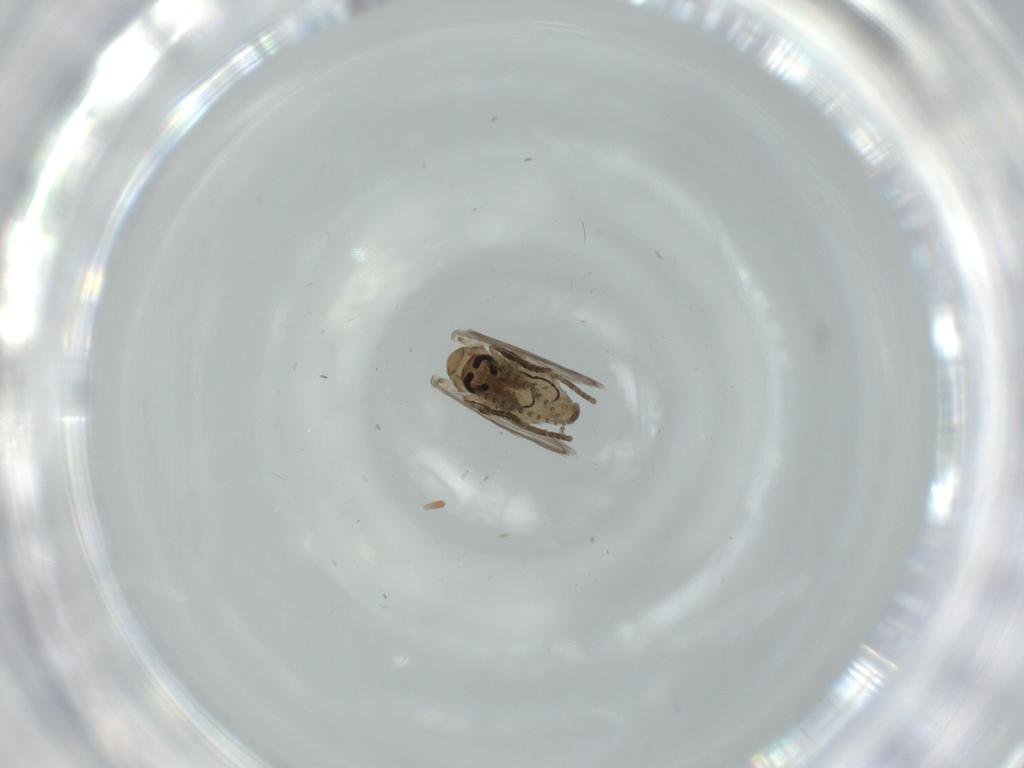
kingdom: Animalia
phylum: Arthropoda
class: Insecta
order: Diptera
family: Psychodidae
